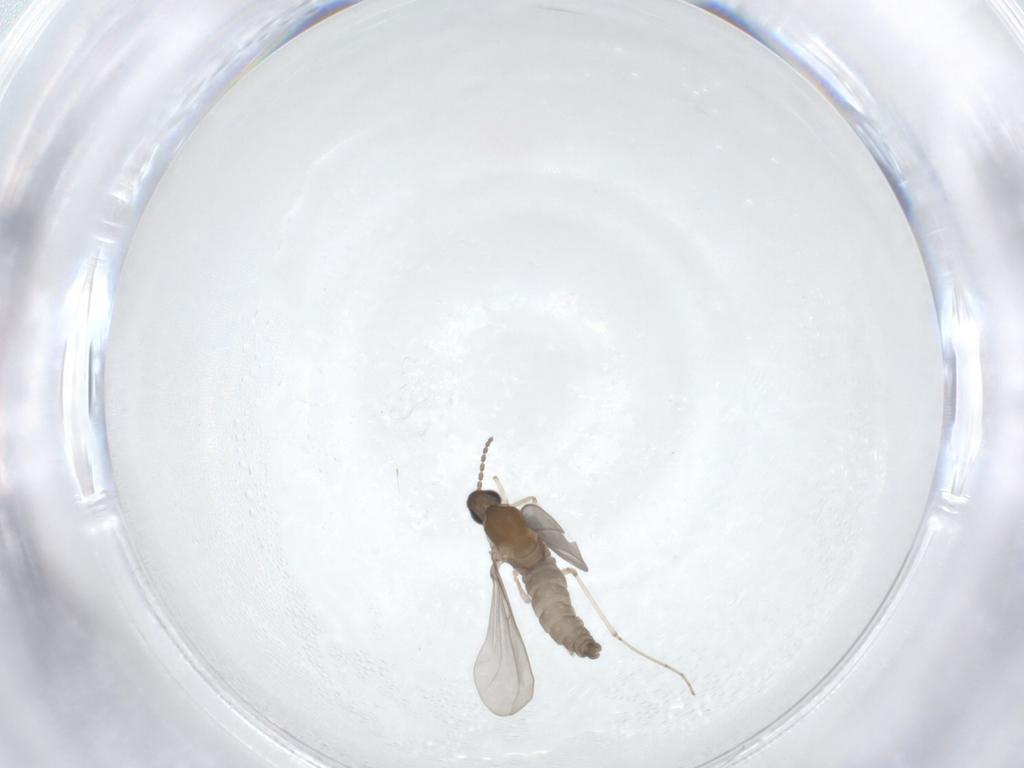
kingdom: Animalia
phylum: Arthropoda
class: Insecta
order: Diptera
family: Cecidomyiidae
